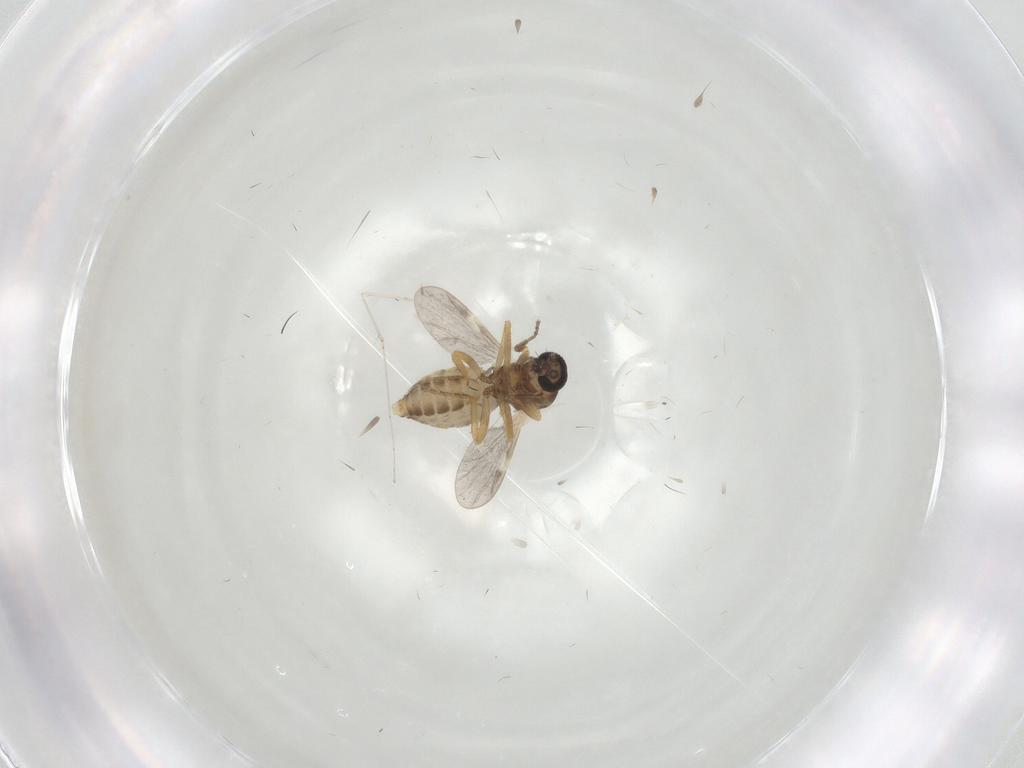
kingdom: Animalia
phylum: Arthropoda
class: Insecta
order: Diptera
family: Ceratopogonidae
